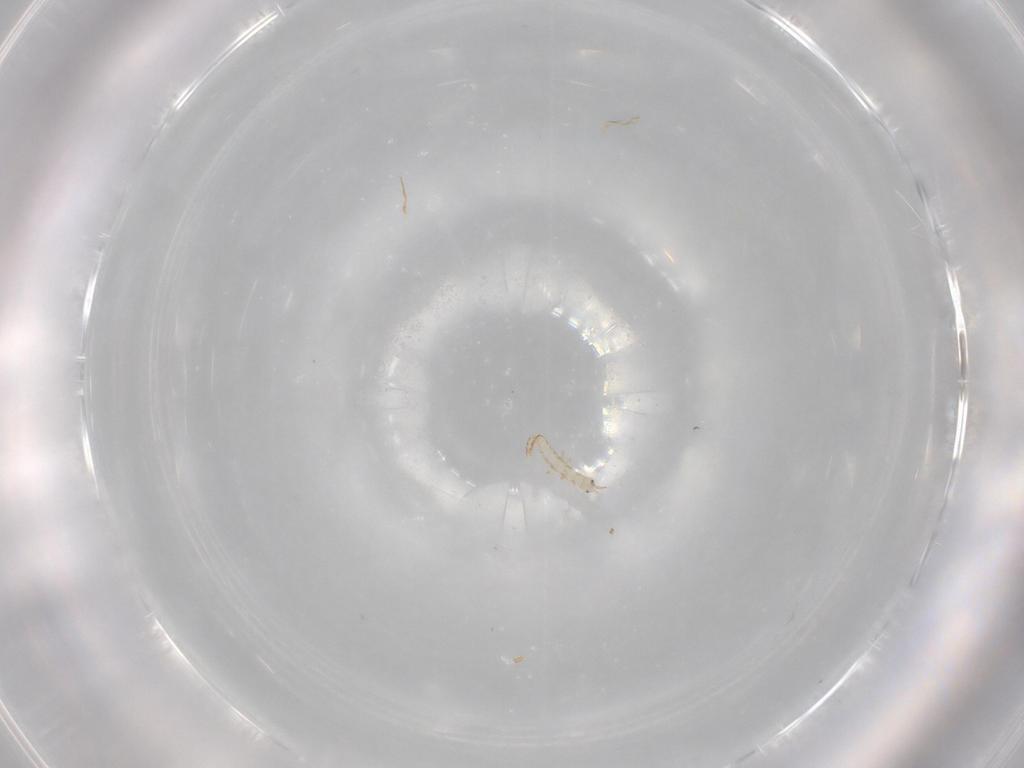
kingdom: Animalia
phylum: Arthropoda
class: Insecta
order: Neuroptera
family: Mantispidae
